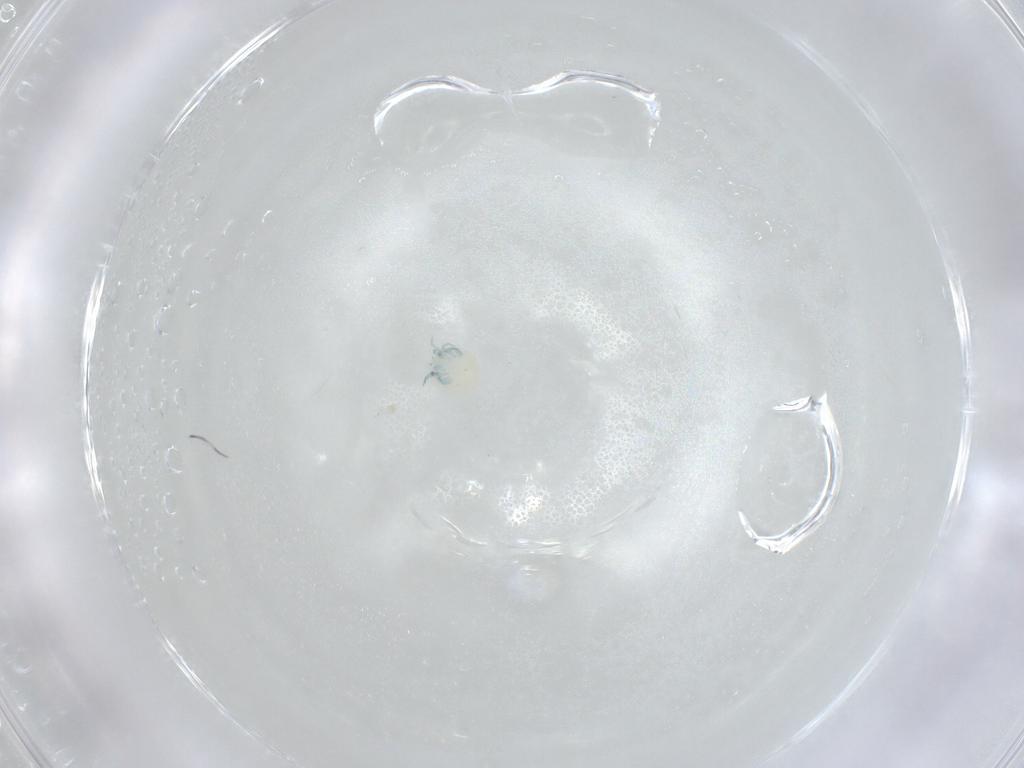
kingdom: Animalia
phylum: Arthropoda
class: Arachnida
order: Trombidiformes
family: Arrenuridae
